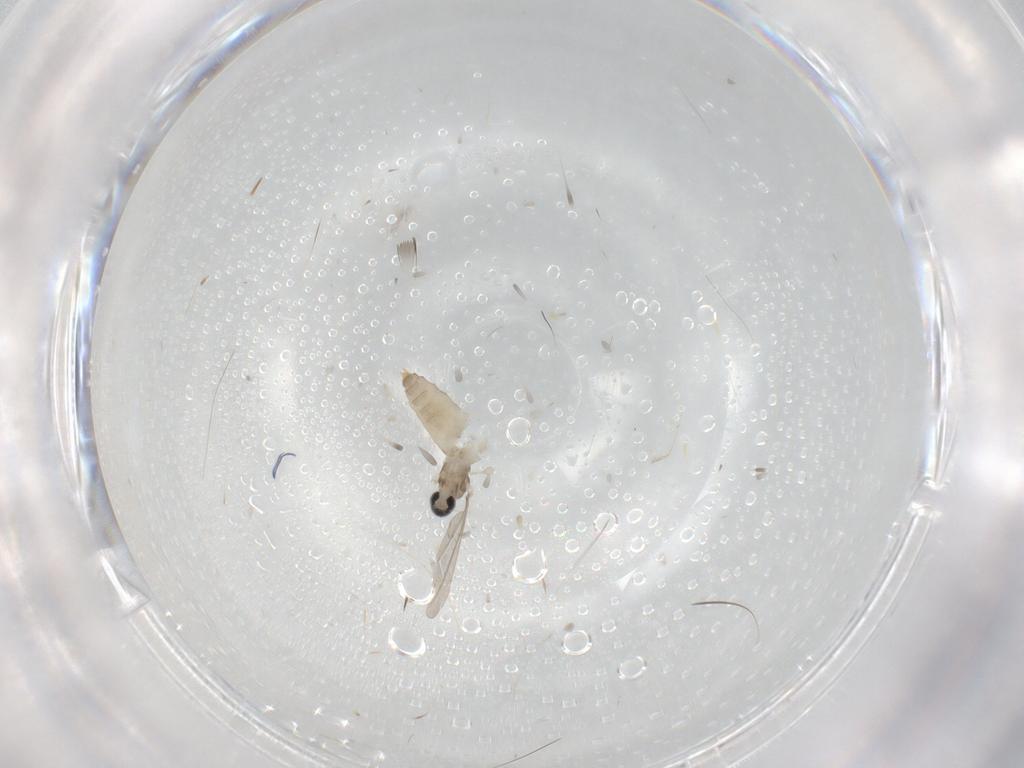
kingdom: Animalia
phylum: Arthropoda
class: Insecta
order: Diptera
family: Cecidomyiidae
